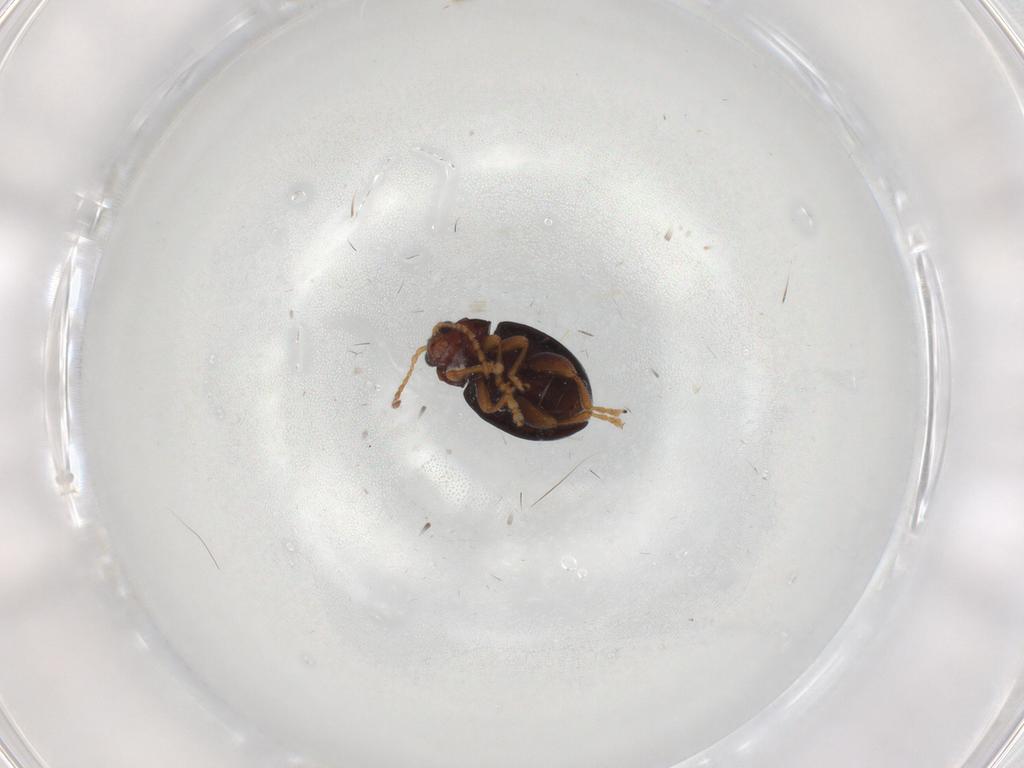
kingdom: Animalia
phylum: Arthropoda
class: Insecta
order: Coleoptera
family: Chrysomelidae
